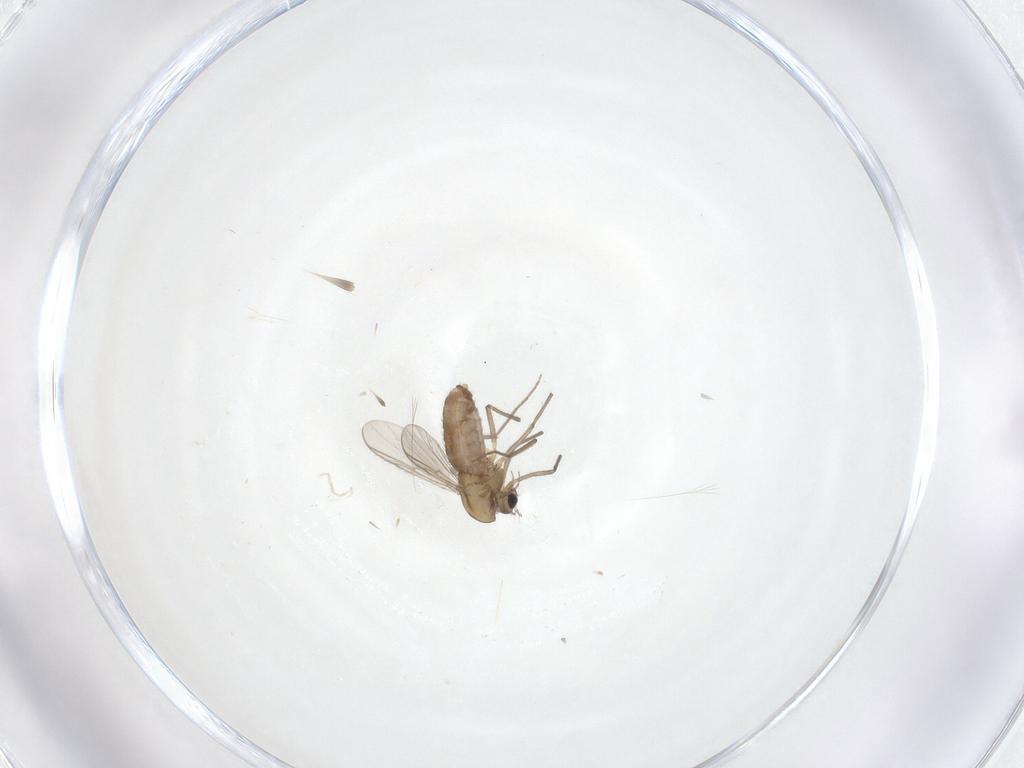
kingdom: Animalia
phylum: Arthropoda
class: Insecta
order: Diptera
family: Chironomidae
